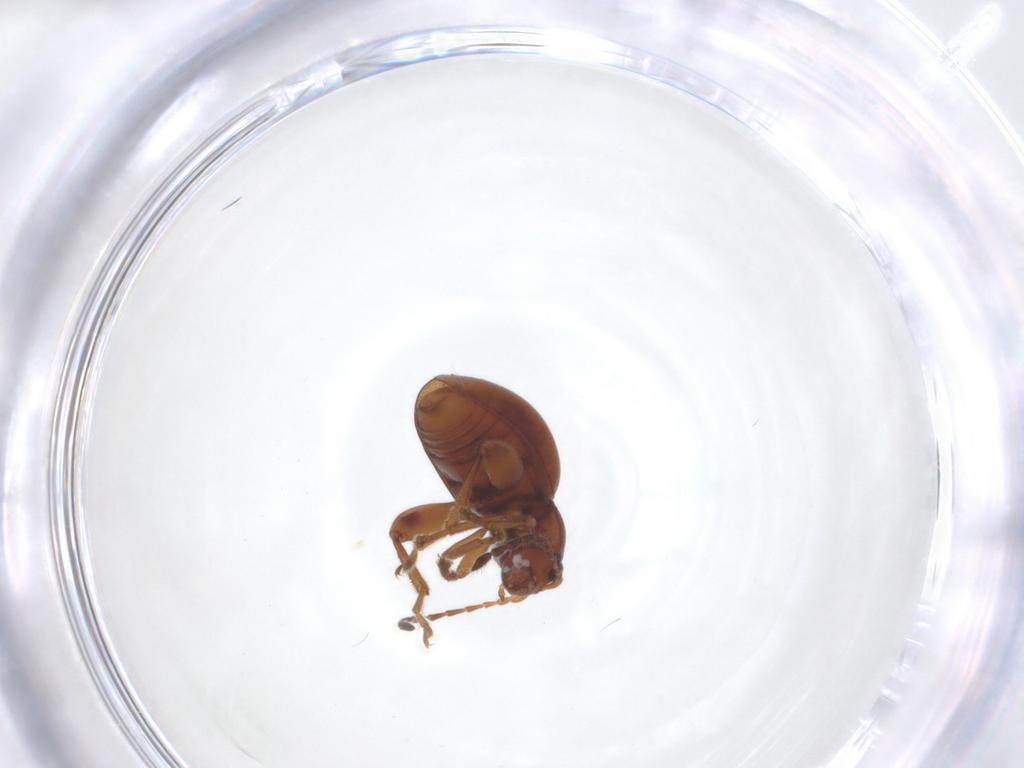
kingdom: Animalia
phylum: Arthropoda
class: Insecta
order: Coleoptera
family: Chrysomelidae
